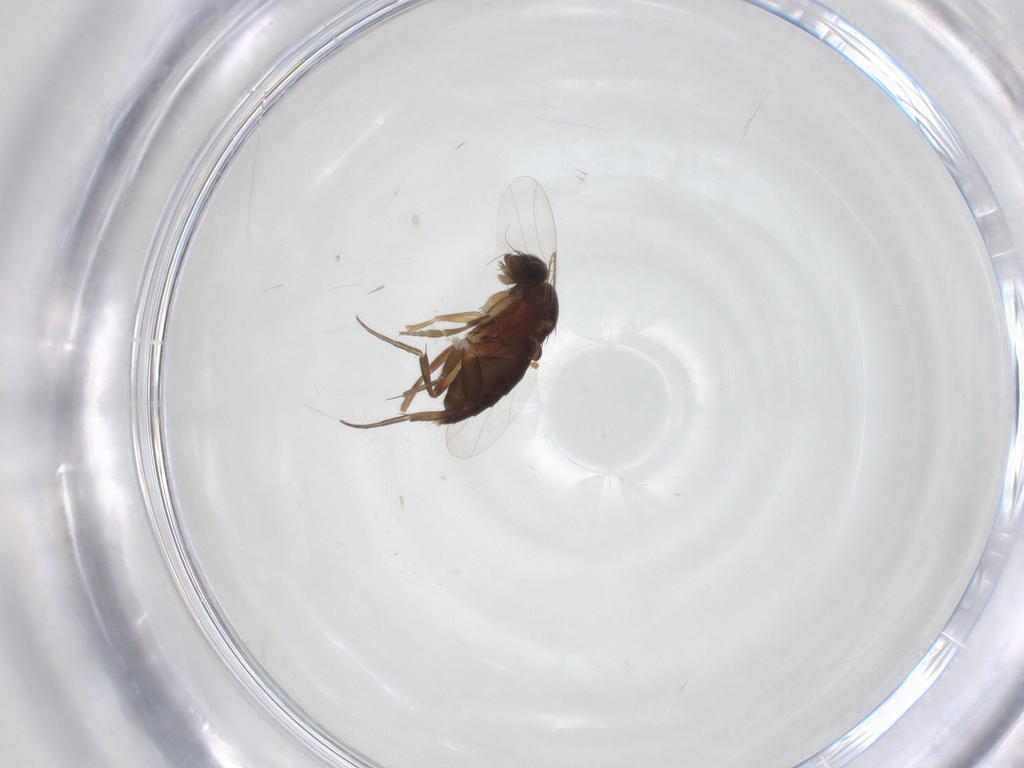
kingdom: Animalia
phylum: Arthropoda
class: Insecta
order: Diptera
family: Phoridae
